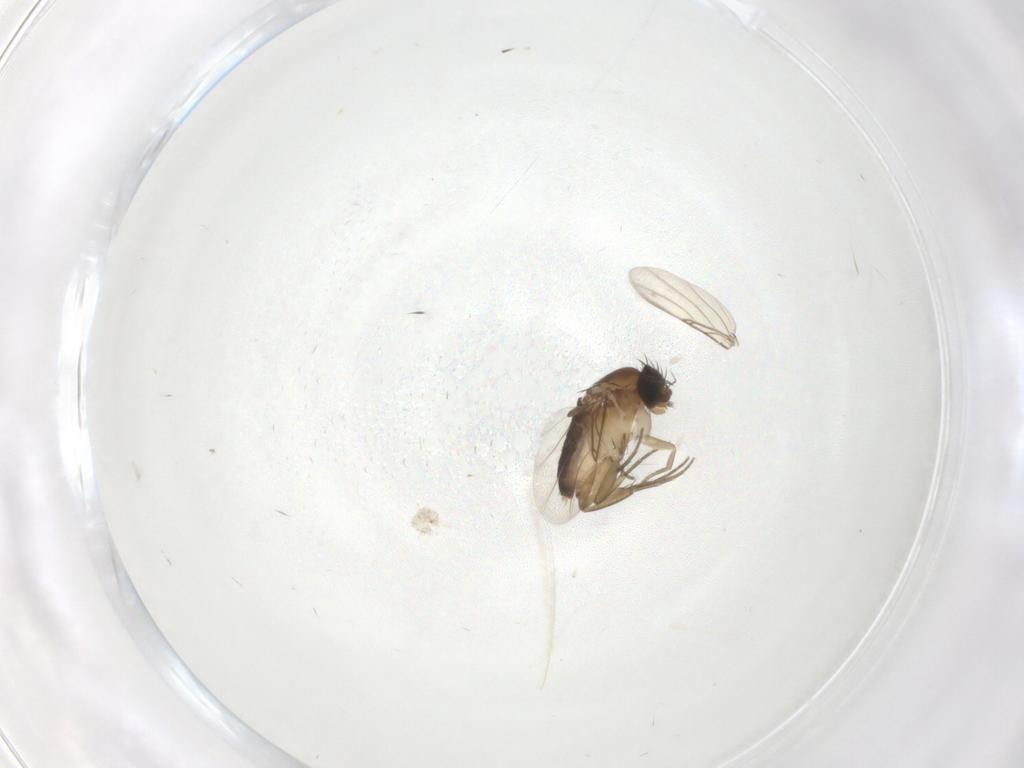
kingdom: Animalia
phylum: Arthropoda
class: Insecta
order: Diptera
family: Phoridae
